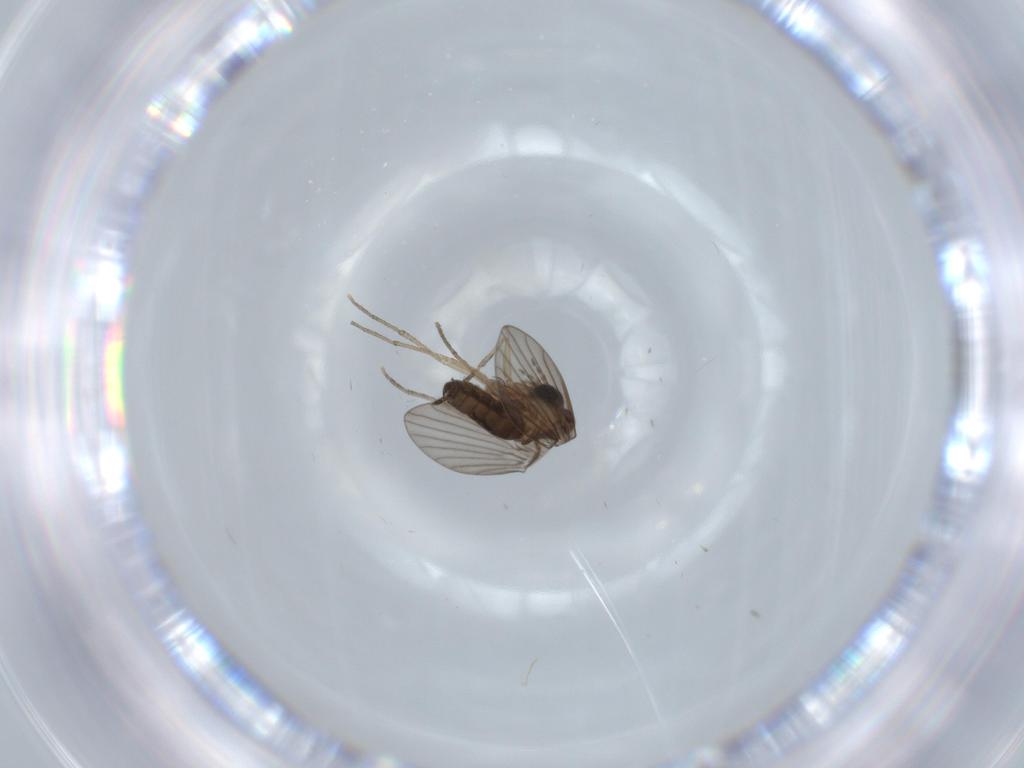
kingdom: Animalia
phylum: Arthropoda
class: Insecta
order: Diptera
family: Psychodidae
